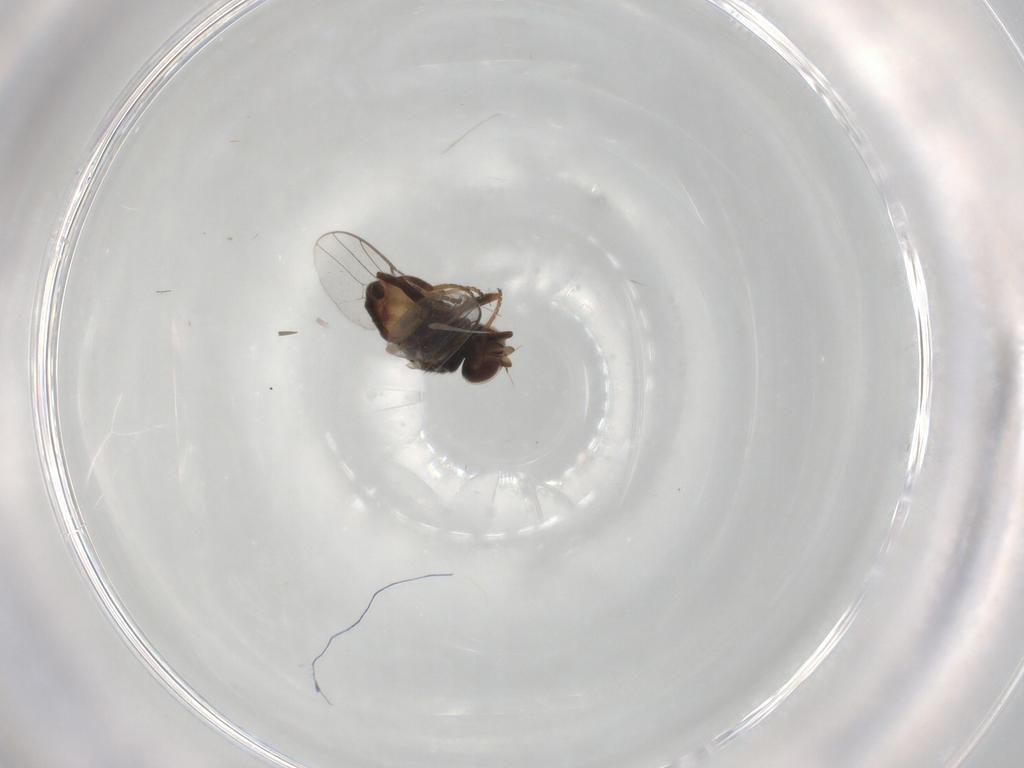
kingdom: Animalia
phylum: Arthropoda
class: Insecta
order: Diptera
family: Chloropidae
